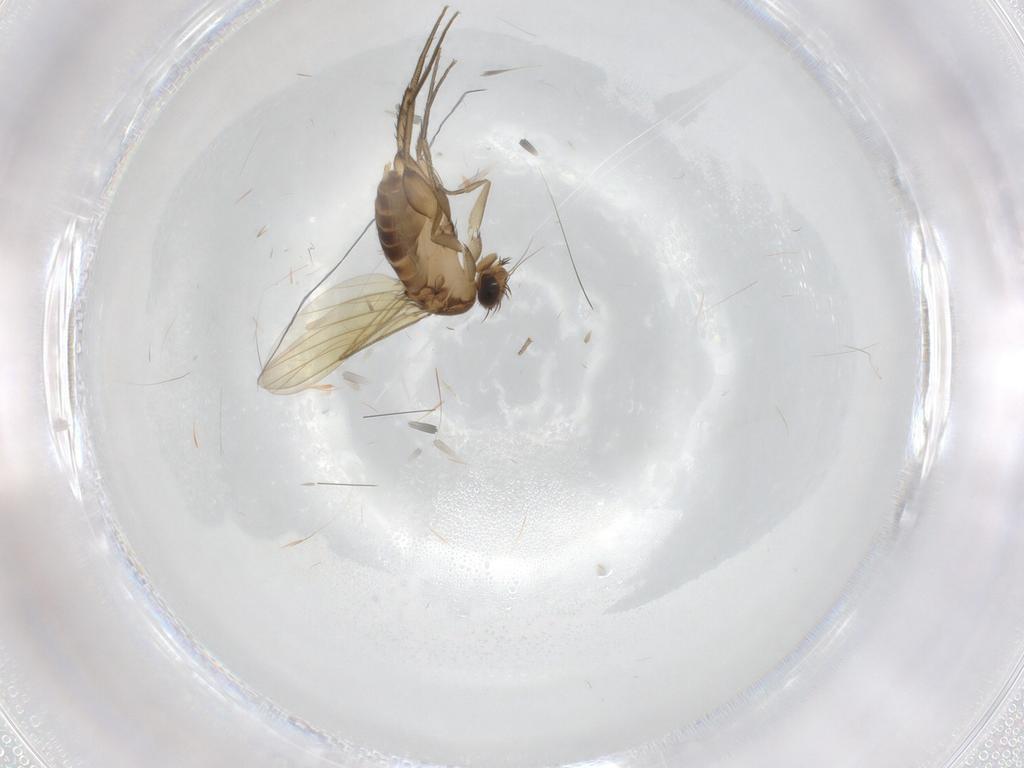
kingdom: Animalia
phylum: Arthropoda
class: Insecta
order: Diptera
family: Phoridae
